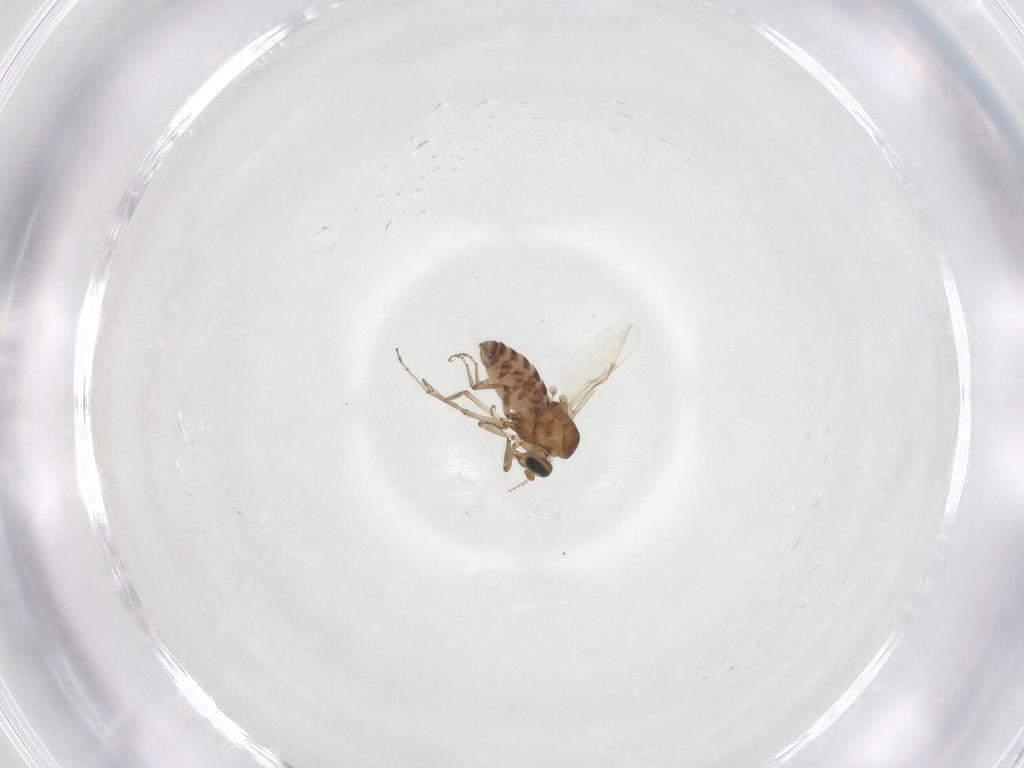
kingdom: Animalia
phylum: Arthropoda
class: Insecta
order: Diptera
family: Ceratopogonidae
